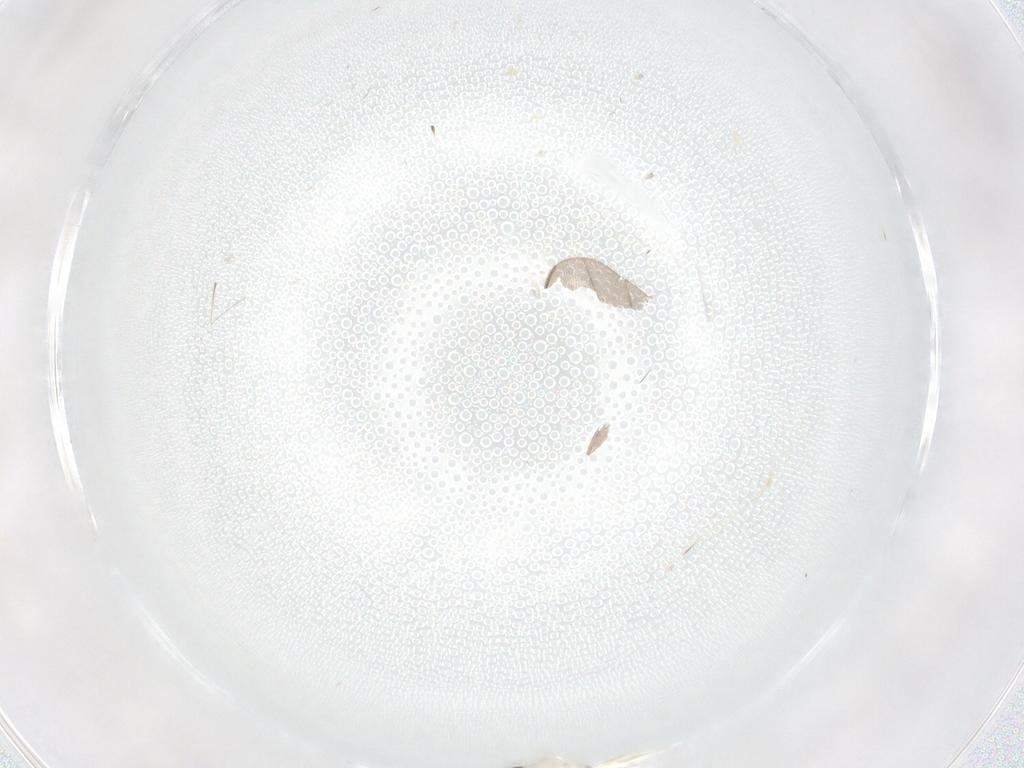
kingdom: Animalia
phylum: Arthropoda
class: Insecta
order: Diptera
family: Cecidomyiidae
